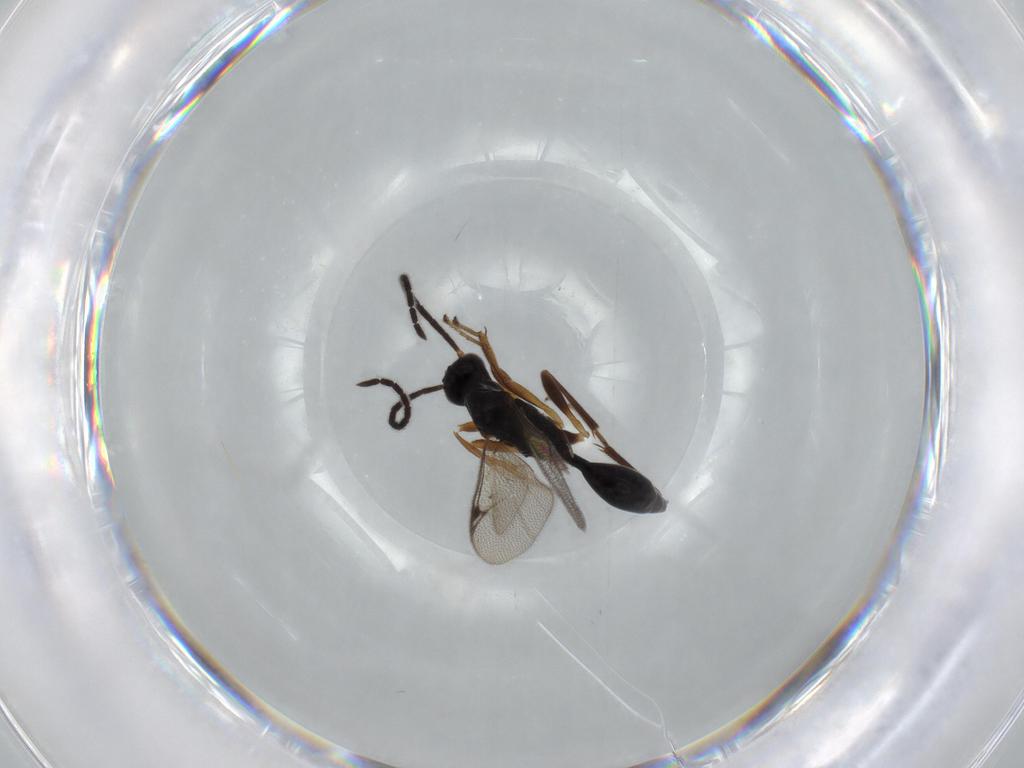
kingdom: Animalia
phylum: Arthropoda
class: Insecta
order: Hymenoptera
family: Proctotrupidae
